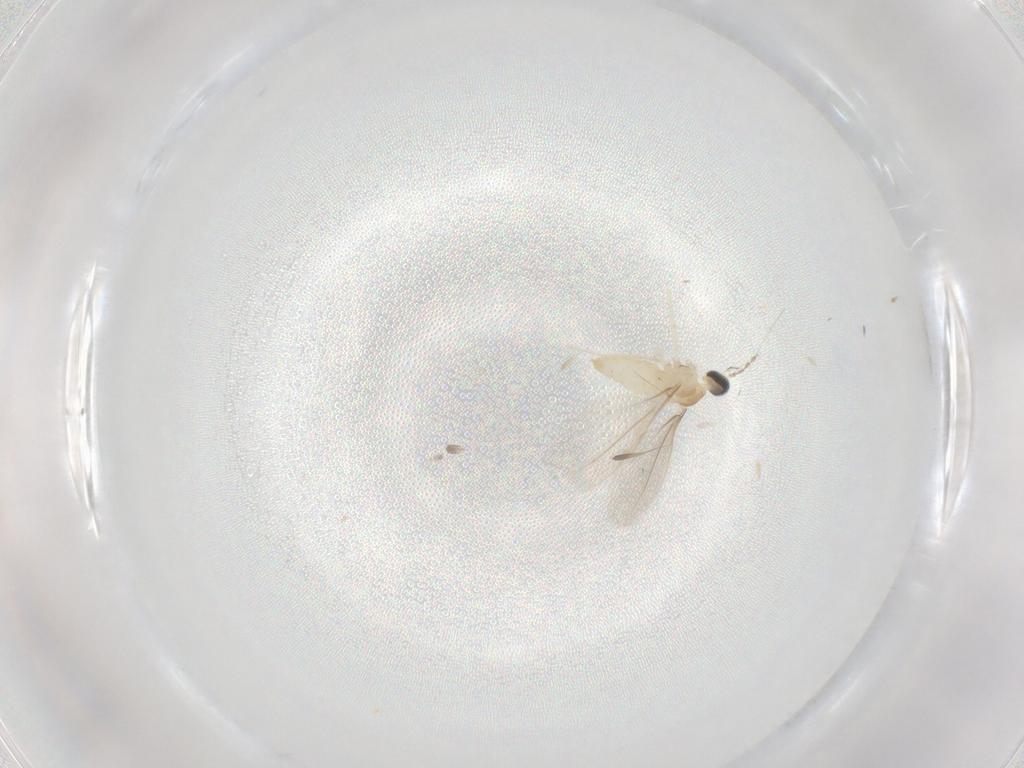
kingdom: Animalia
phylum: Arthropoda
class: Insecta
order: Diptera
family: Cecidomyiidae
